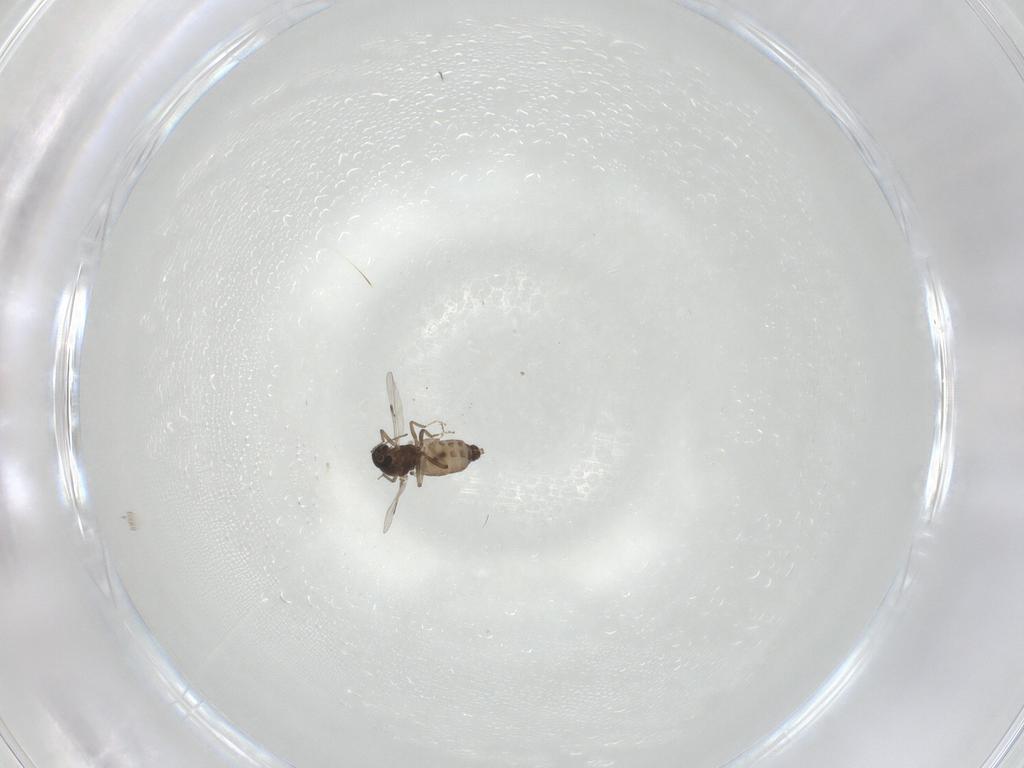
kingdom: Animalia
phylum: Arthropoda
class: Insecta
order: Diptera
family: Ceratopogonidae
